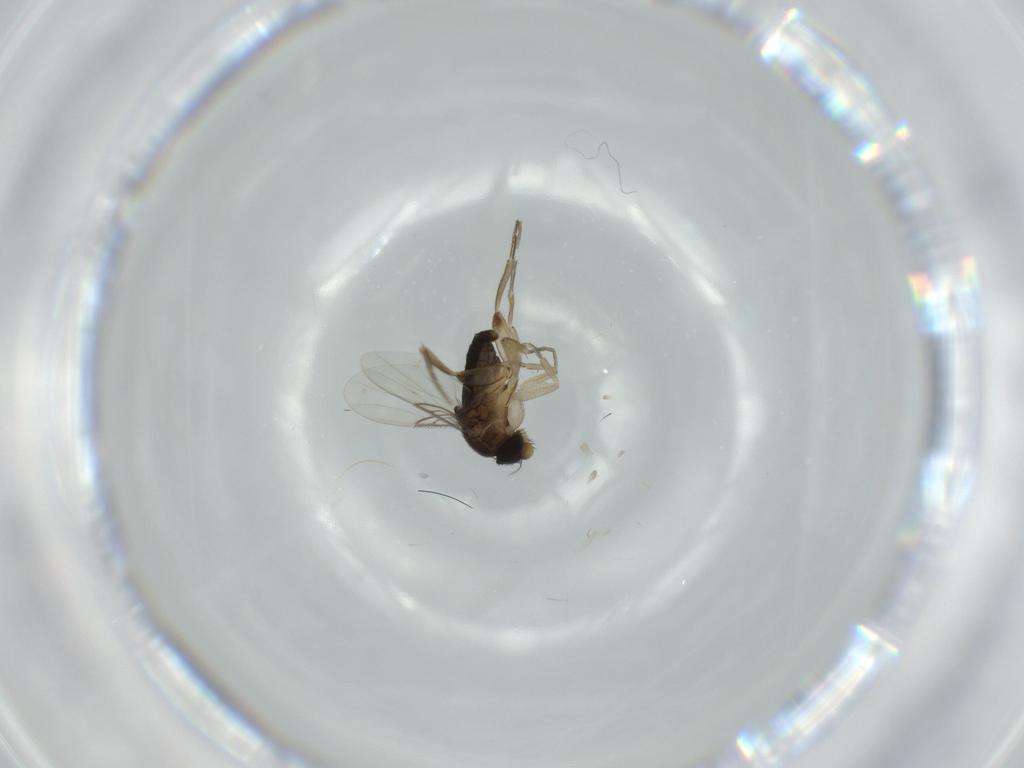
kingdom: Animalia
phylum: Arthropoda
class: Insecta
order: Diptera
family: Phoridae
